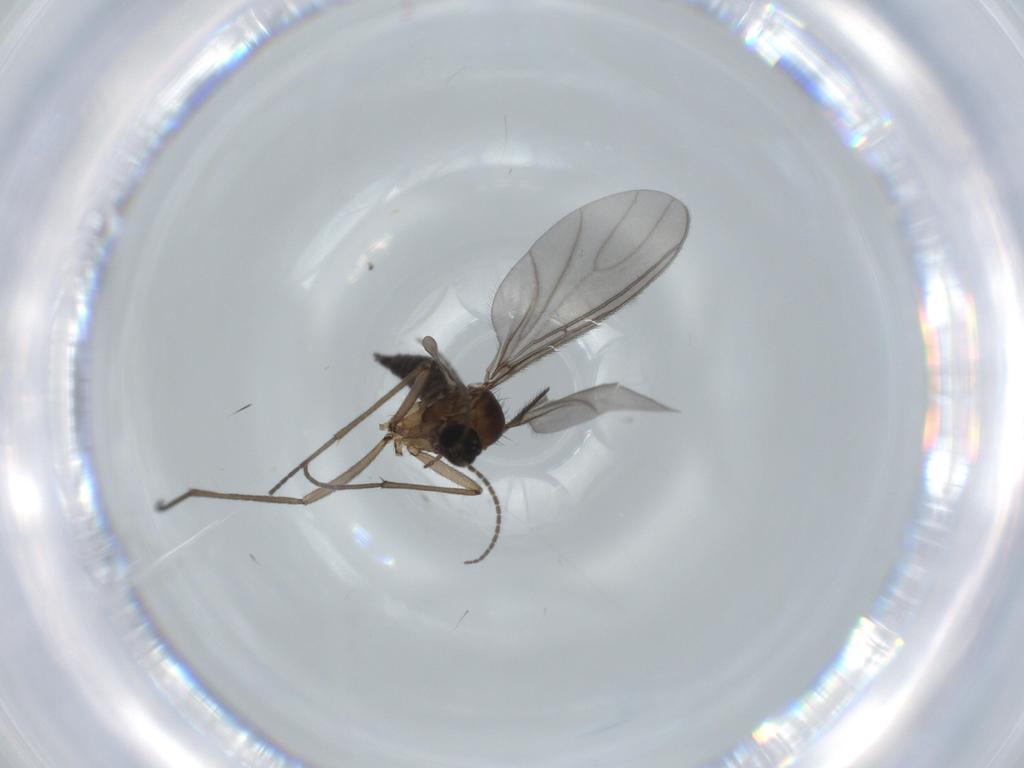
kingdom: Animalia
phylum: Arthropoda
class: Insecta
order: Diptera
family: Sciaridae
